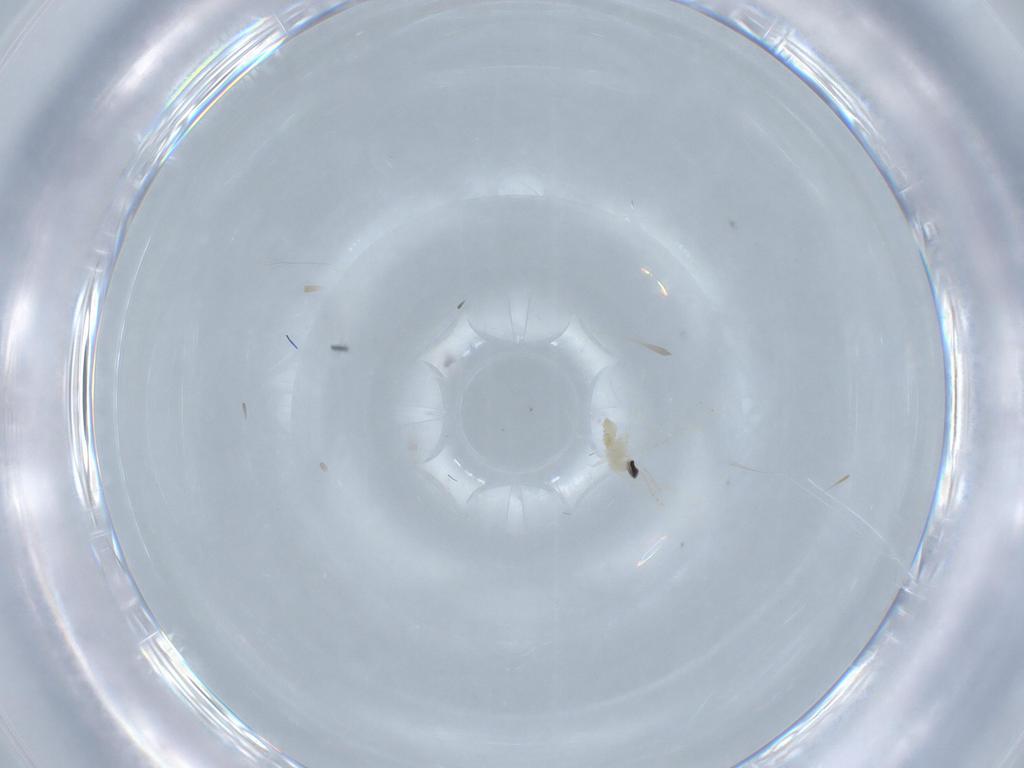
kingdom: Animalia
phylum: Arthropoda
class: Insecta
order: Diptera
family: Cecidomyiidae
